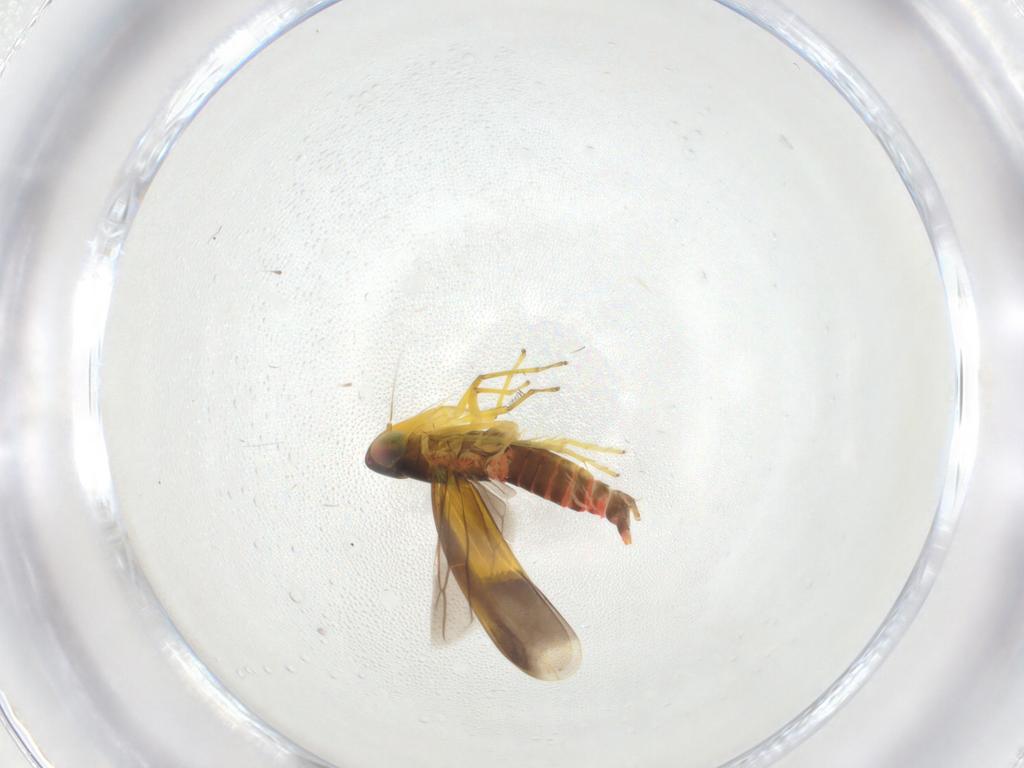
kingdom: Animalia
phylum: Arthropoda
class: Insecta
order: Hemiptera
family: Cicadellidae
